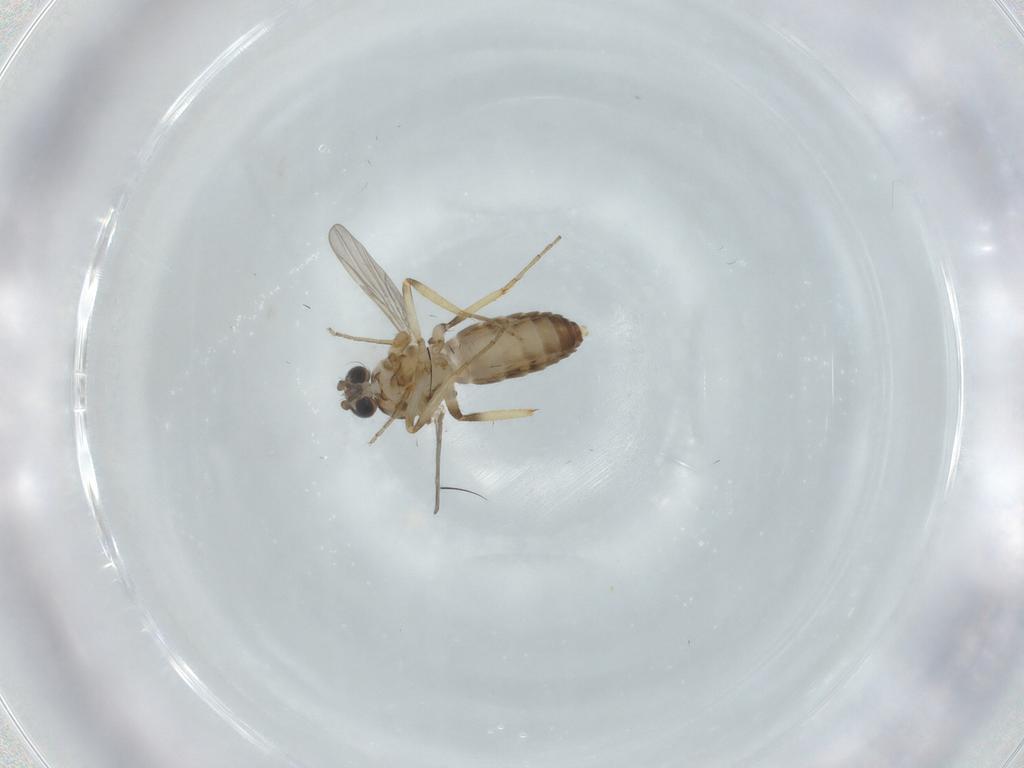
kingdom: Animalia
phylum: Arthropoda
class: Insecta
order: Diptera
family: Ceratopogonidae
